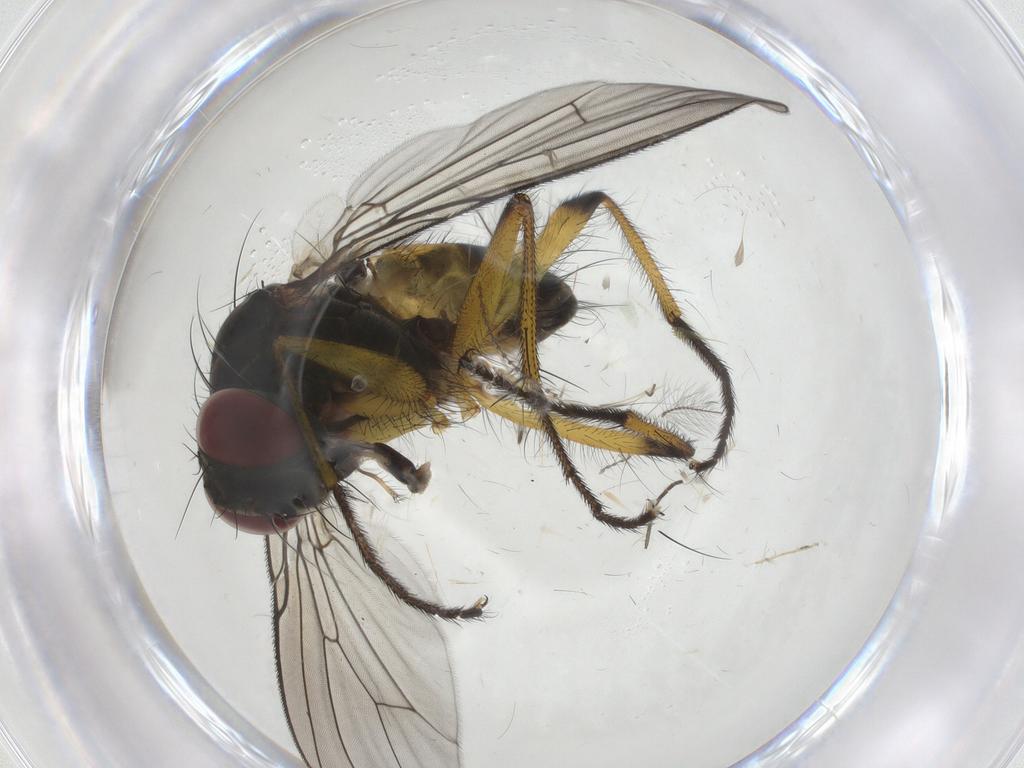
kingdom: Animalia
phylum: Arthropoda
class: Insecta
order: Diptera
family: Muscidae
